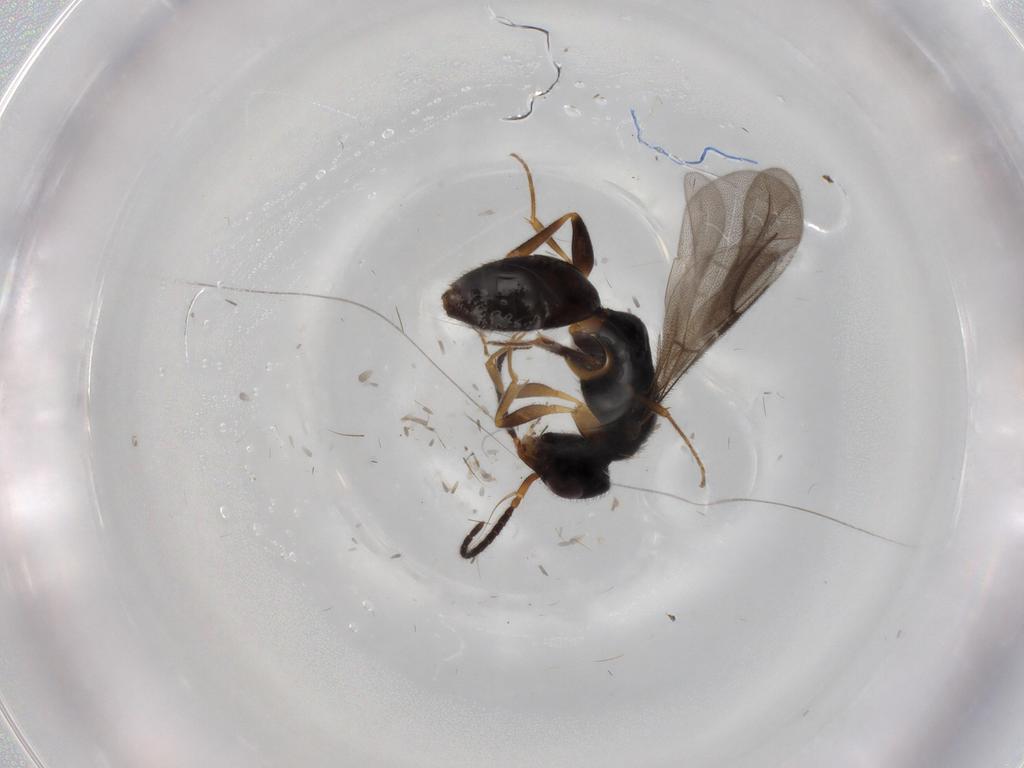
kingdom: Animalia
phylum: Arthropoda
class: Insecta
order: Hymenoptera
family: Bethylidae
